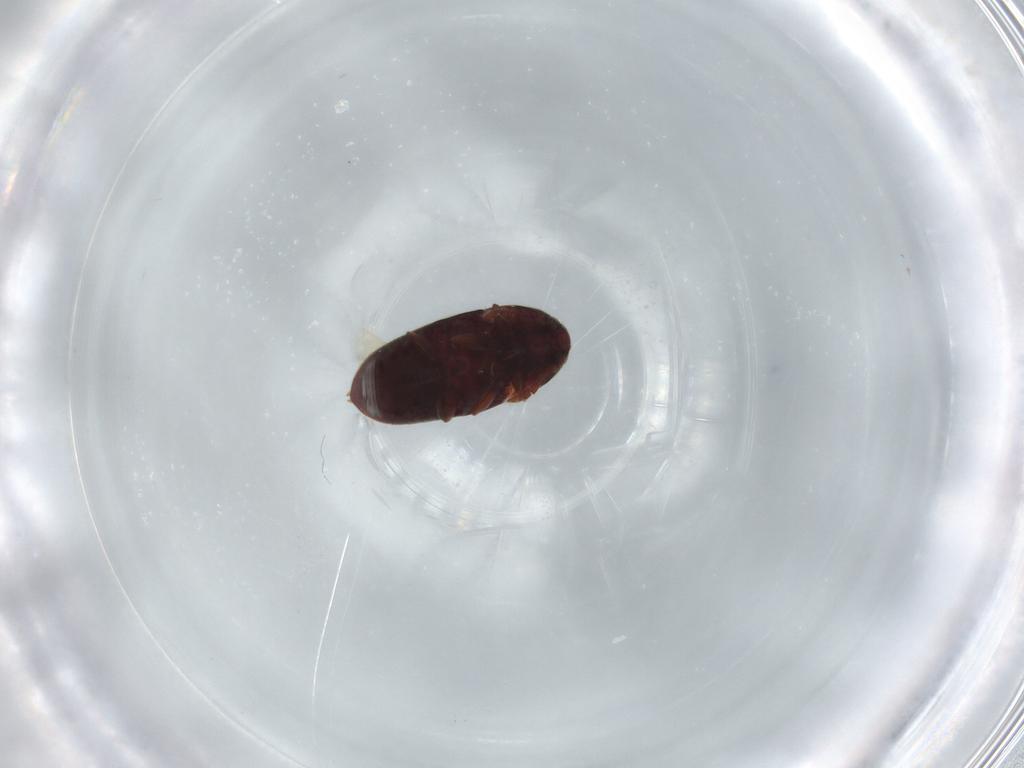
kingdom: Animalia
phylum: Arthropoda
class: Insecta
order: Coleoptera
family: Throscidae
